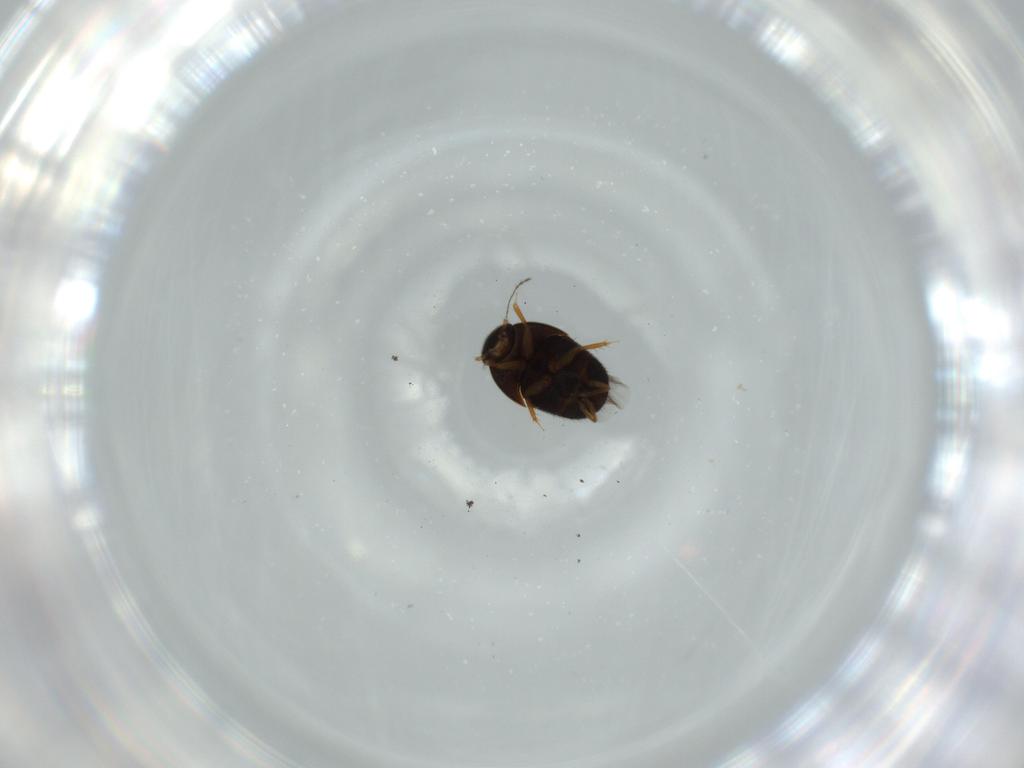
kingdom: Animalia
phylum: Arthropoda
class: Insecta
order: Coleoptera
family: Ptiliidae
